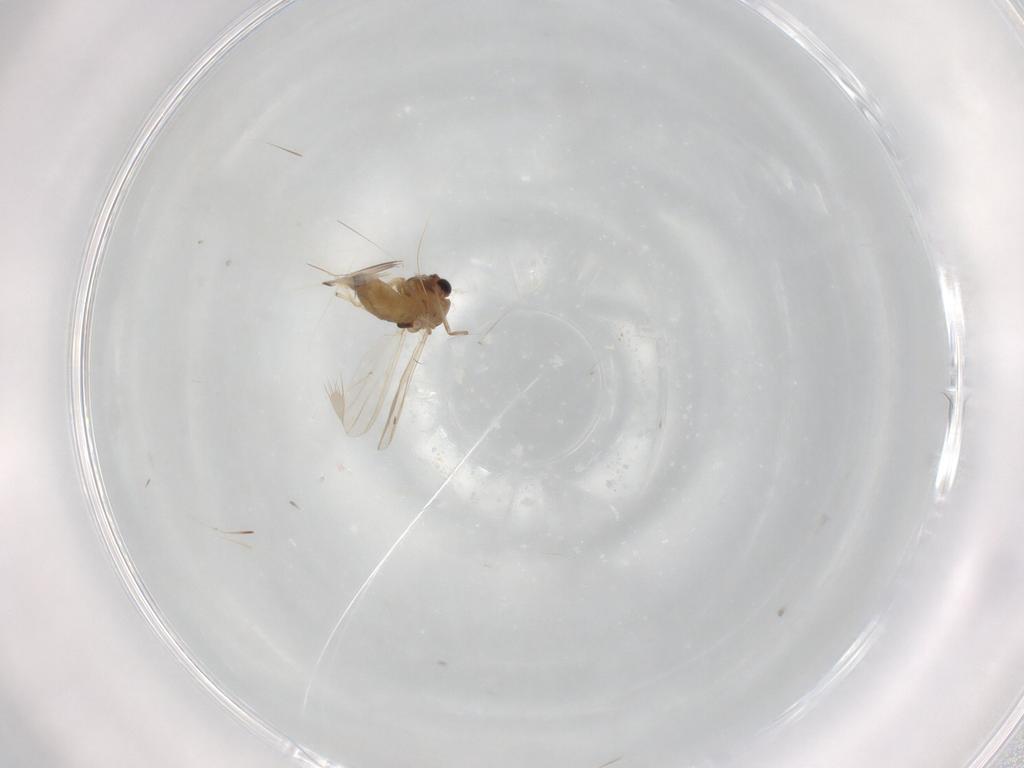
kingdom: Animalia
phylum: Arthropoda
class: Insecta
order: Diptera
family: Chironomidae
